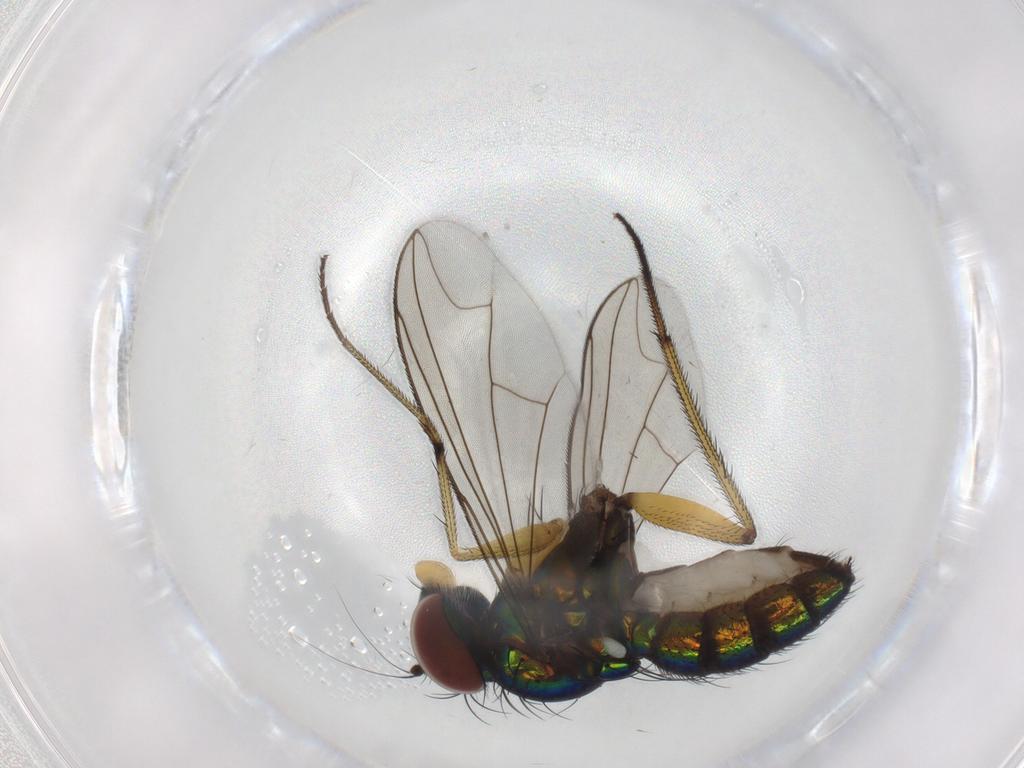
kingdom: Animalia
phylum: Arthropoda
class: Insecta
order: Diptera
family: Dolichopodidae
